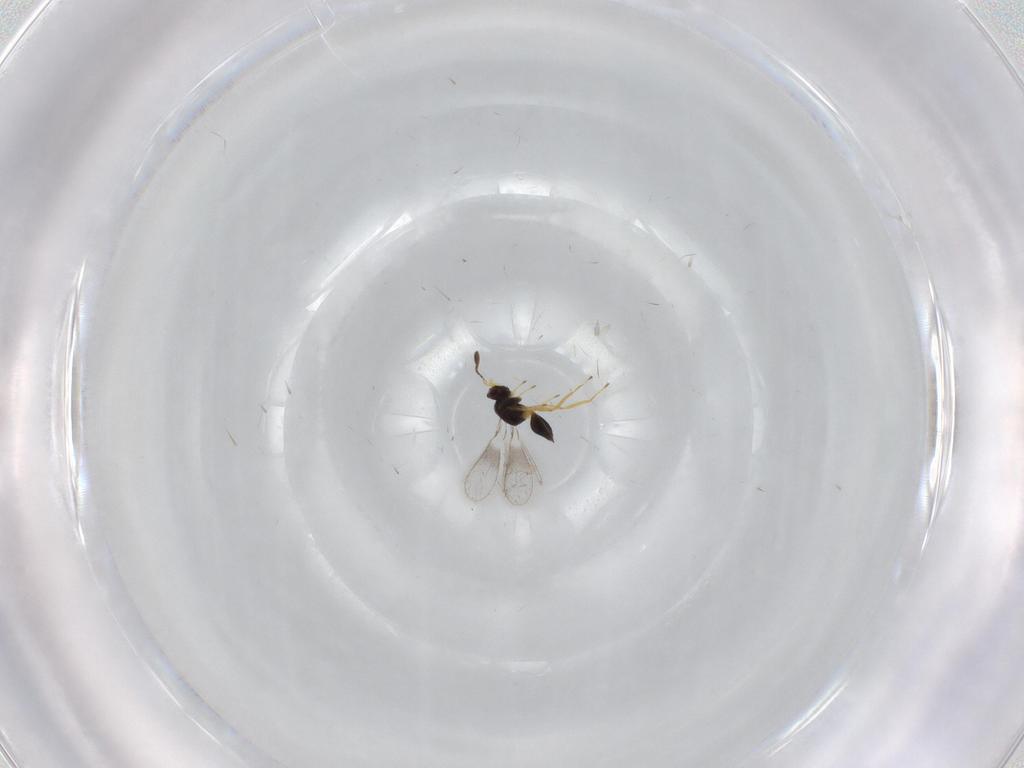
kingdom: Animalia
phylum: Arthropoda
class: Insecta
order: Hymenoptera
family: Mymaridae
